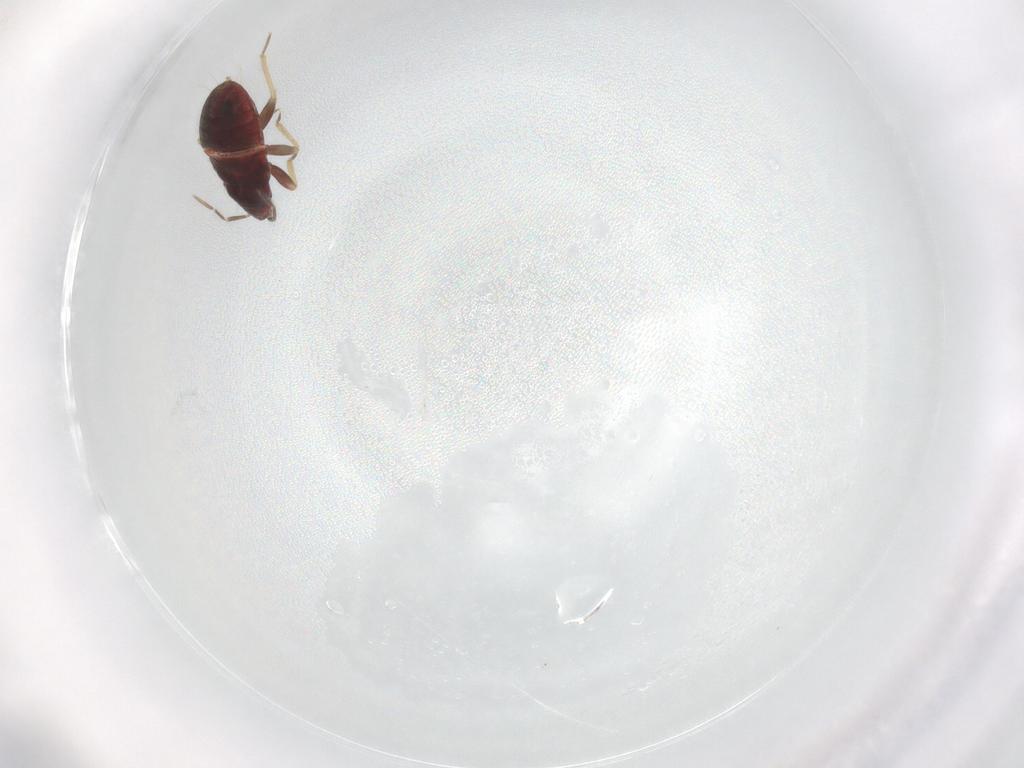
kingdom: Animalia
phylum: Arthropoda
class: Insecta
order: Hemiptera
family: Anthocoridae
